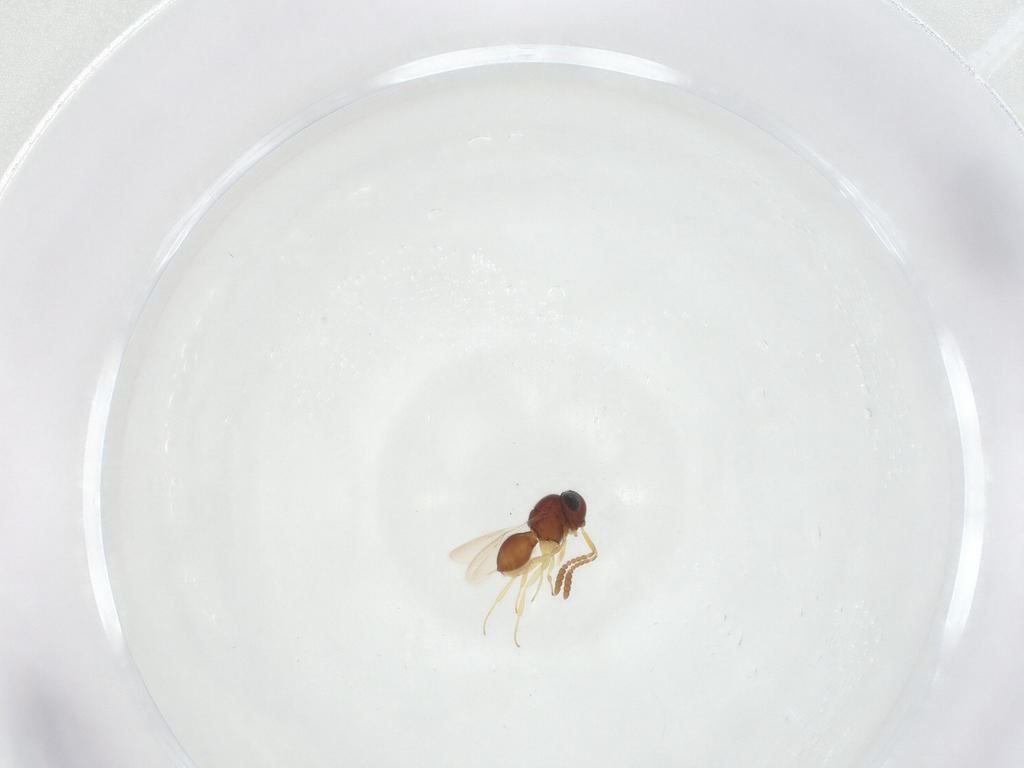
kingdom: Animalia
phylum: Arthropoda
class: Insecta
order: Hymenoptera
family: Scelionidae
